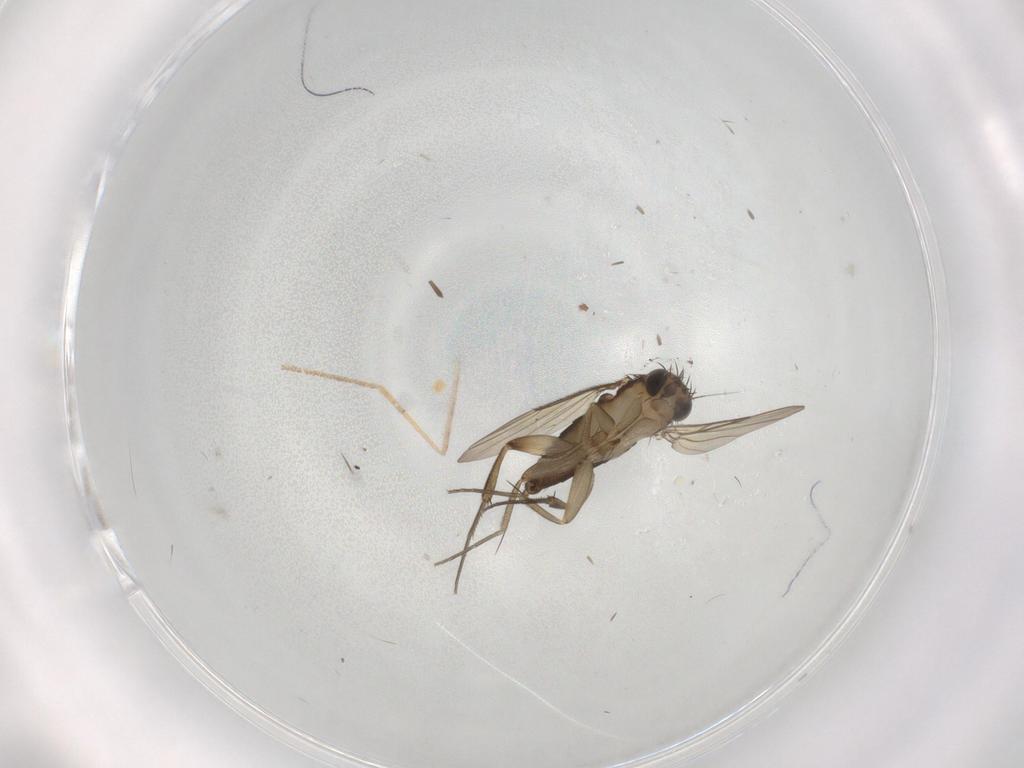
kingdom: Animalia
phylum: Arthropoda
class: Insecta
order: Diptera
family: Phoridae
